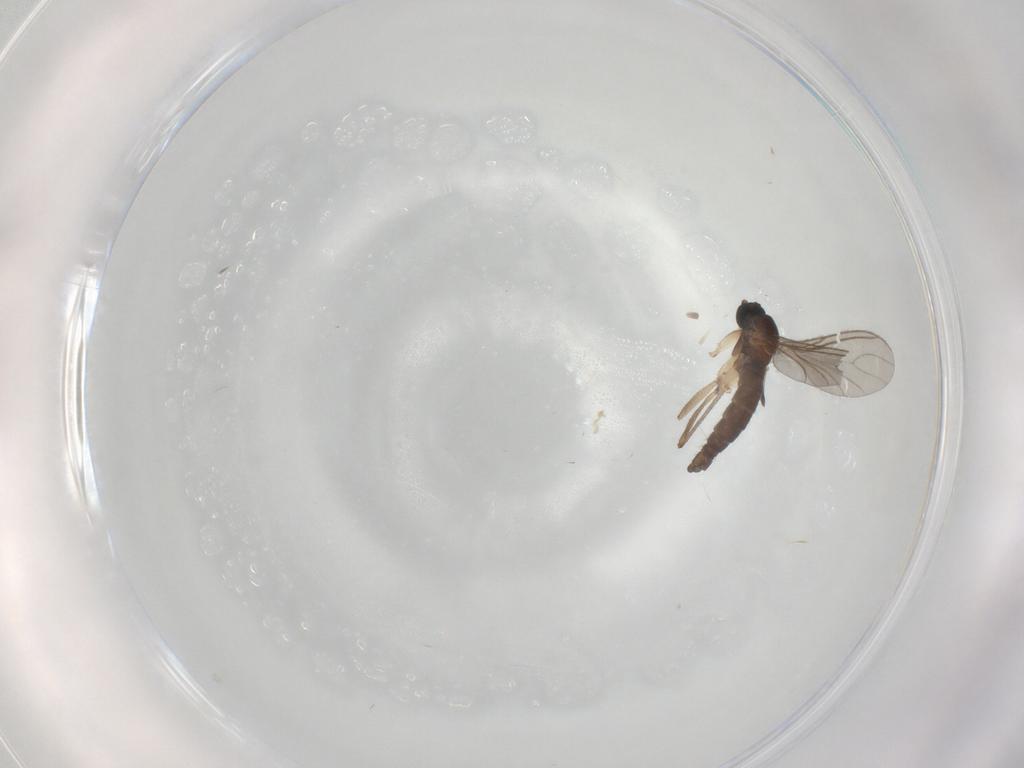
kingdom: Animalia
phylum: Arthropoda
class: Insecta
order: Diptera
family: Sciaridae
